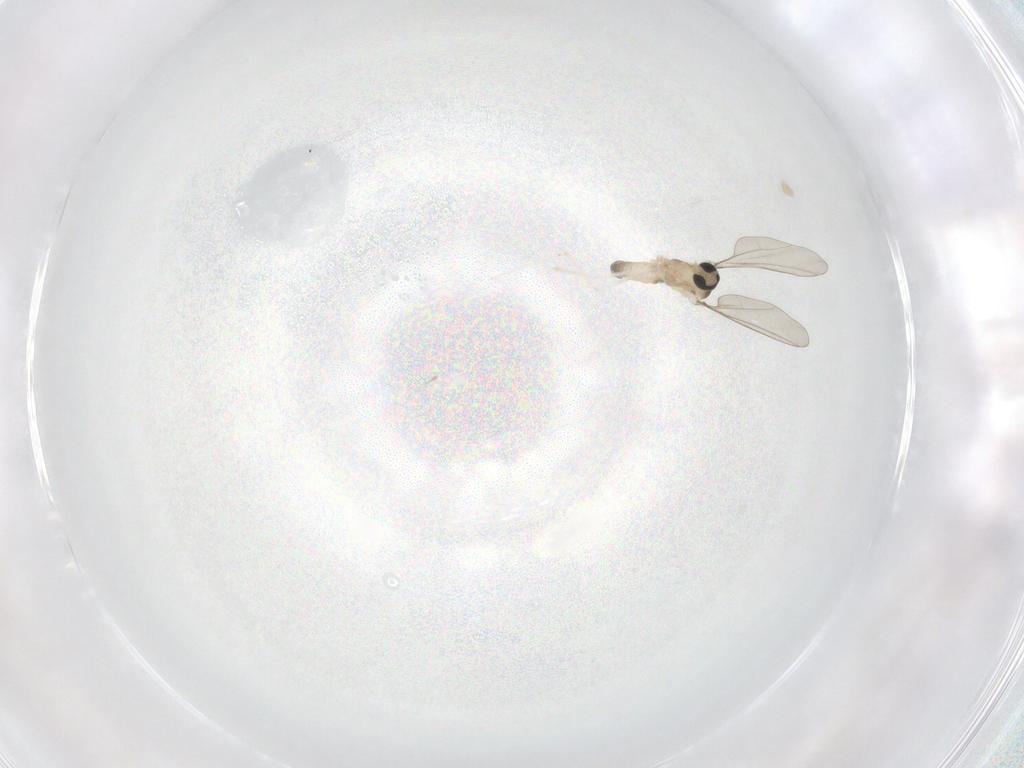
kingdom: Animalia
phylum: Arthropoda
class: Insecta
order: Diptera
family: Cecidomyiidae
